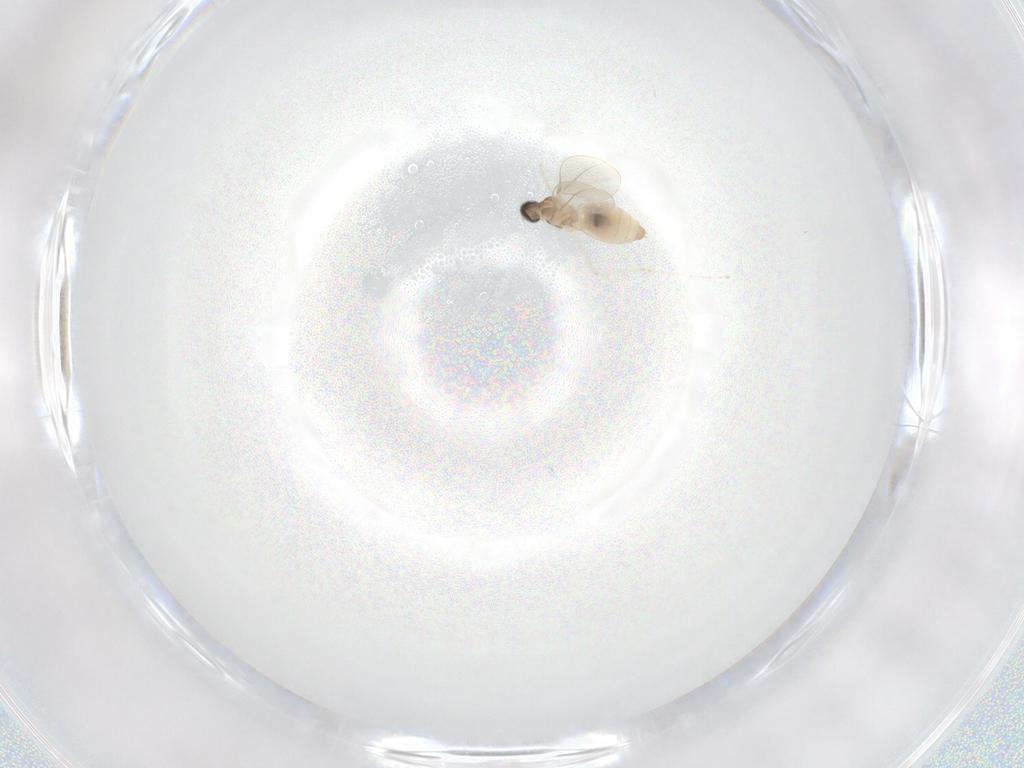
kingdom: Animalia
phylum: Arthropoda
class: Insecta
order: Diptera
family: Cecidomyiidae
